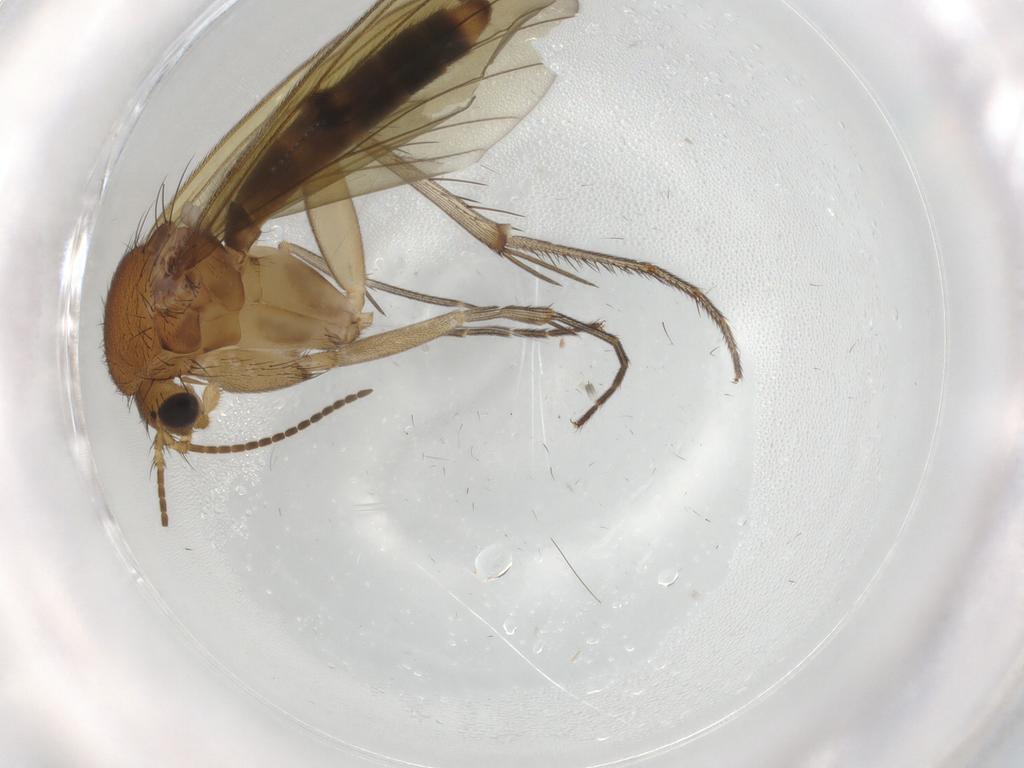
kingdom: Animalia
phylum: Arthropoda
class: Insecta
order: Diptera
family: Mycetophilidae
